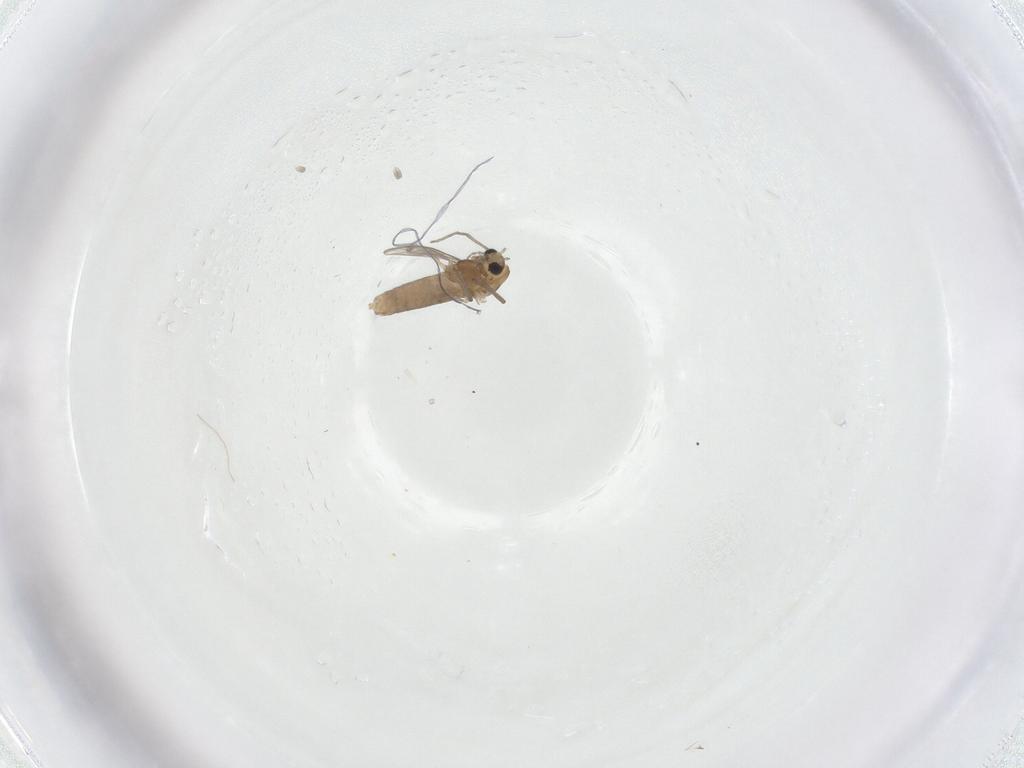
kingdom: Animalia
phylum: Arthropoda
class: Insecta
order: Diptera
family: Chironomidae
